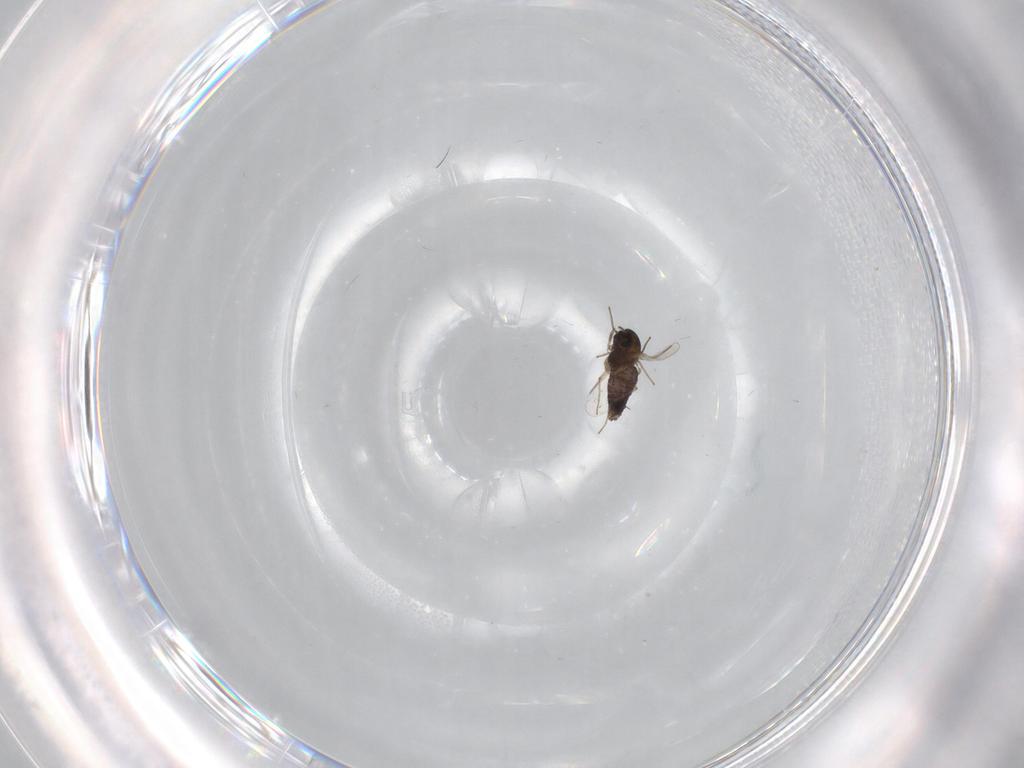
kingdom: Animalia
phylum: Arthropoda
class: Insecta
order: Diptera
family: Chironomidae
